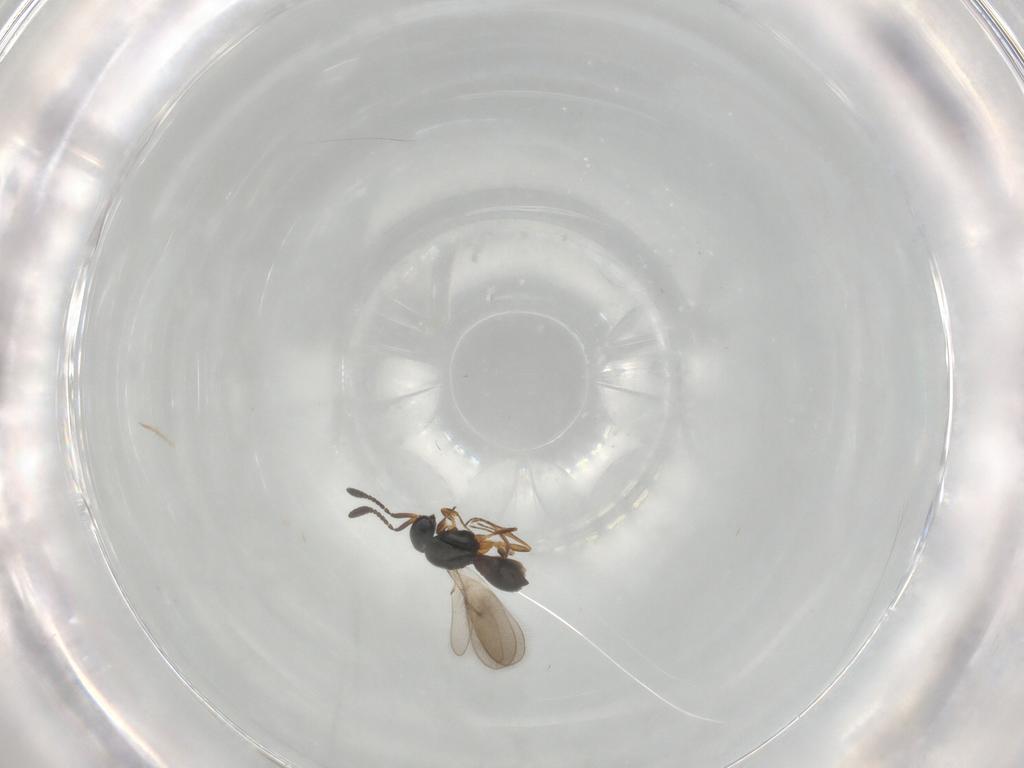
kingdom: Animalia
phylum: Arthropoda
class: Insecta
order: Hymenoptera
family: Scelionidae
